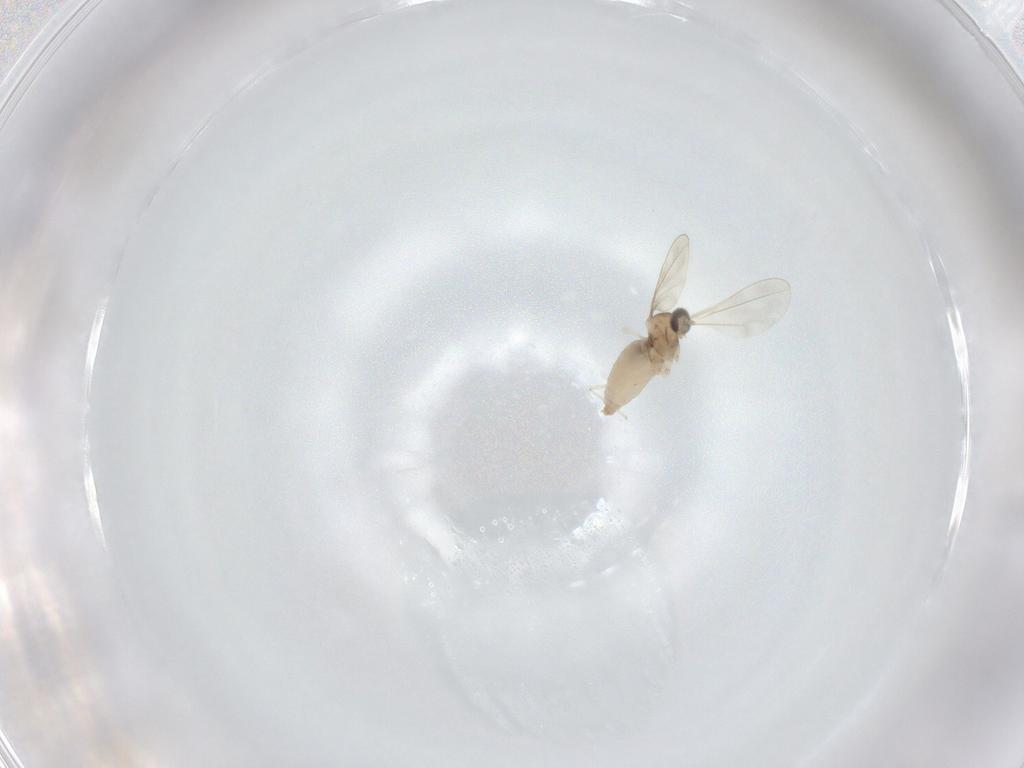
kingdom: Animalia
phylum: Arthropoda
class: Insecta
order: Diptera
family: Cecidomyiidae
